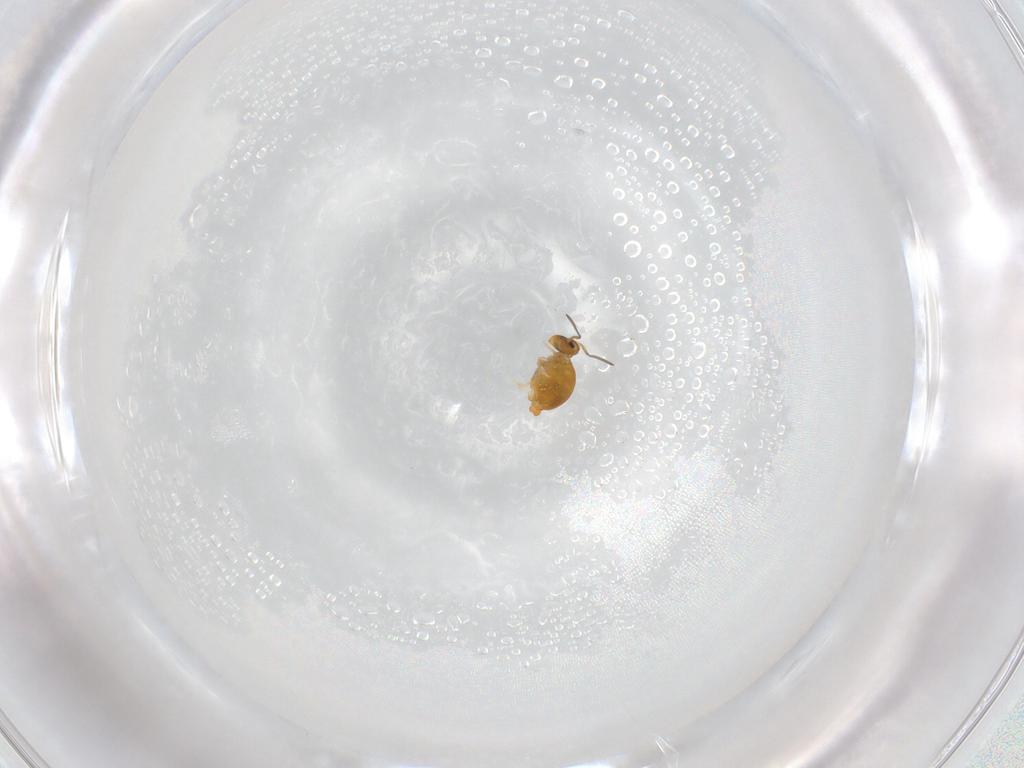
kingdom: Animalia
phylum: Arthropoda
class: Collembola
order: Symphypleona
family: Katiannidae
